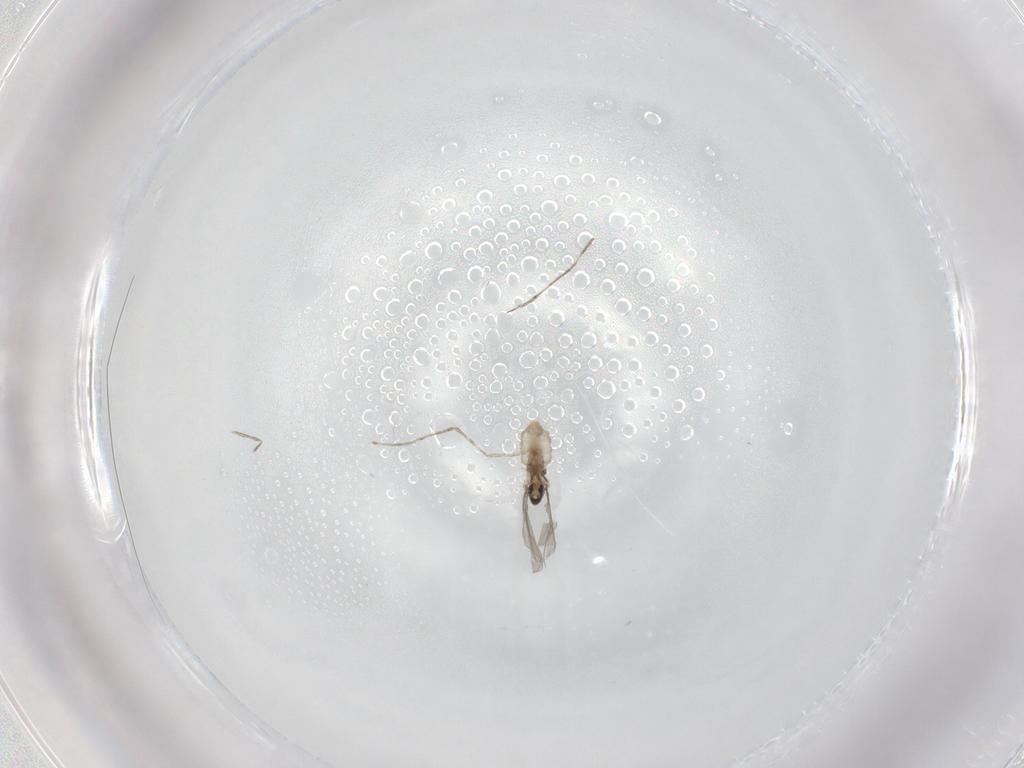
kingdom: Animalia
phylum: Arthropoda
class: Insecta
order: Diptera
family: Cecidomyiidae
